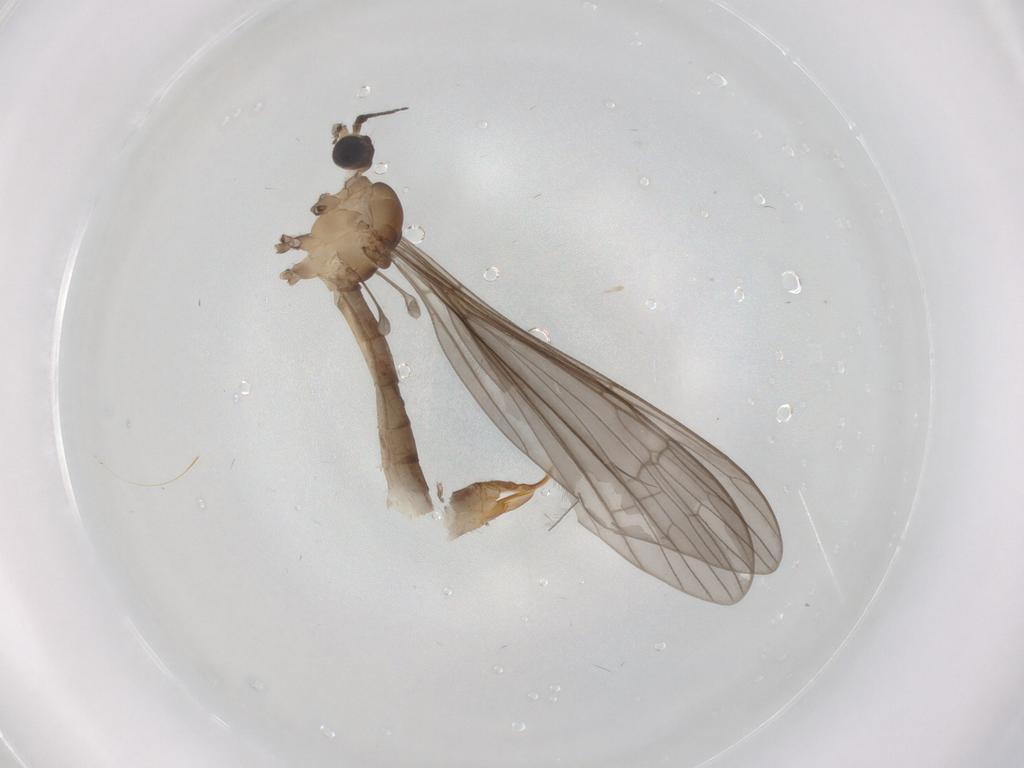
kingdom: Animalia
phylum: Arthropoda
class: Insecta
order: Diptera
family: Limoniidae
